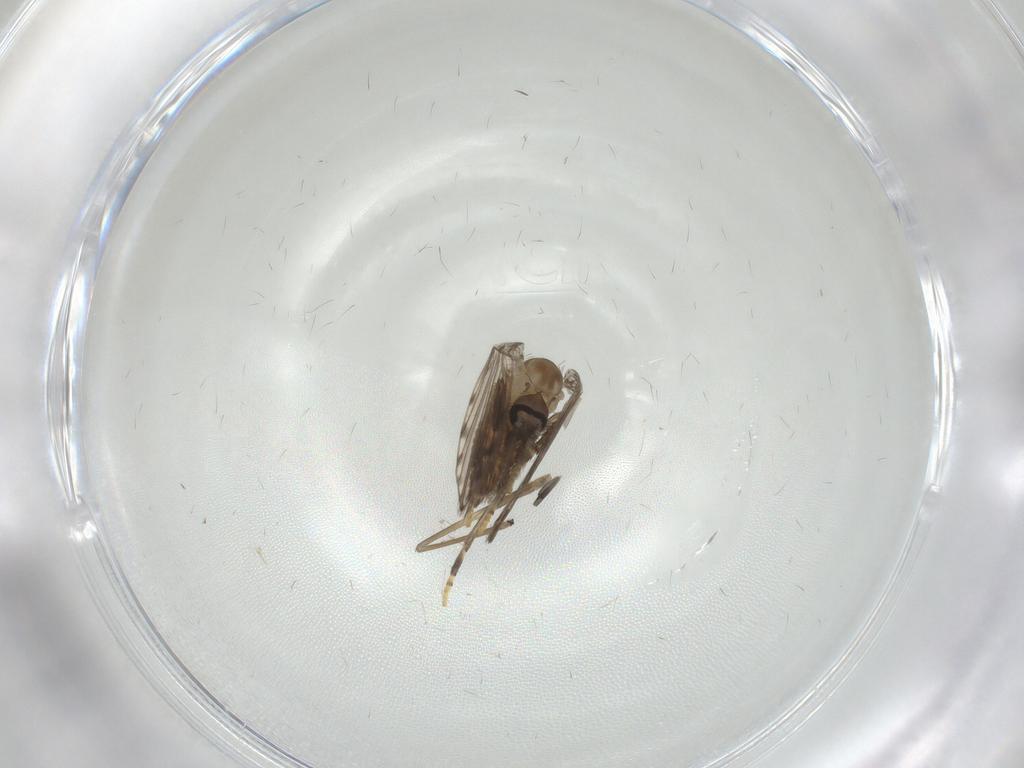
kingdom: Animalia
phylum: Arthropoda
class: Insecta
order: Diptera
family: Psychodidae
